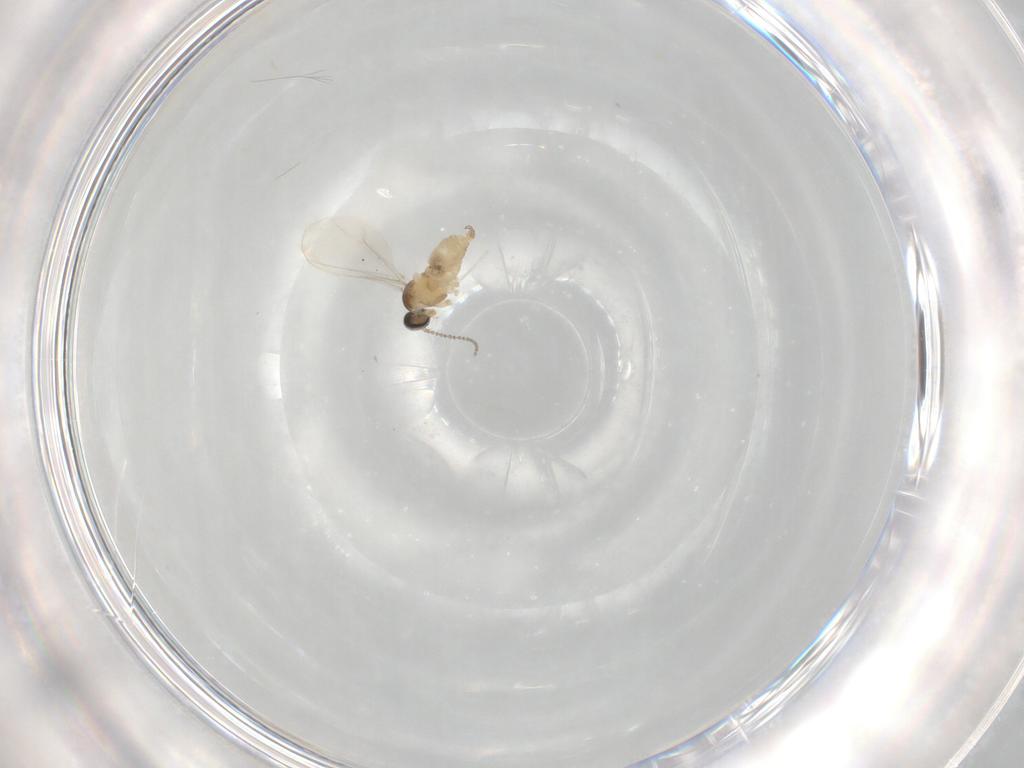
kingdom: Animalia
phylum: Arthropoda
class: Insecta
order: Diptera
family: Cecidomyiidae
